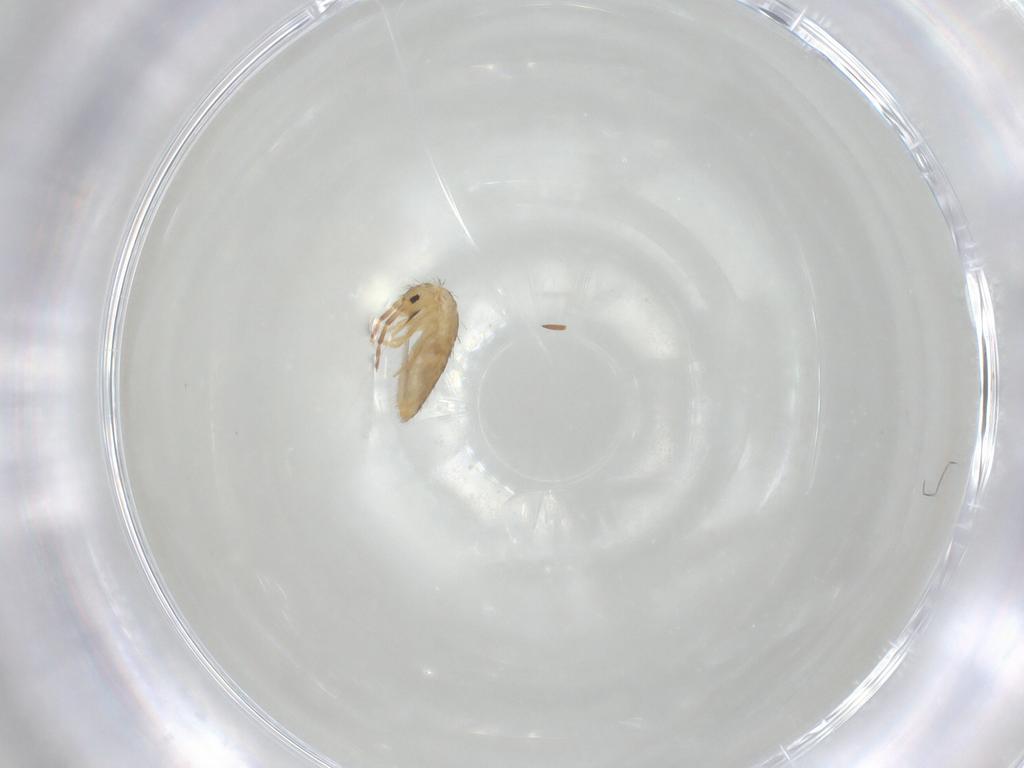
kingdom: Animalia
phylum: Arthropoda
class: Collembola
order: Entomobryomorpha
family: Entomobryidae
